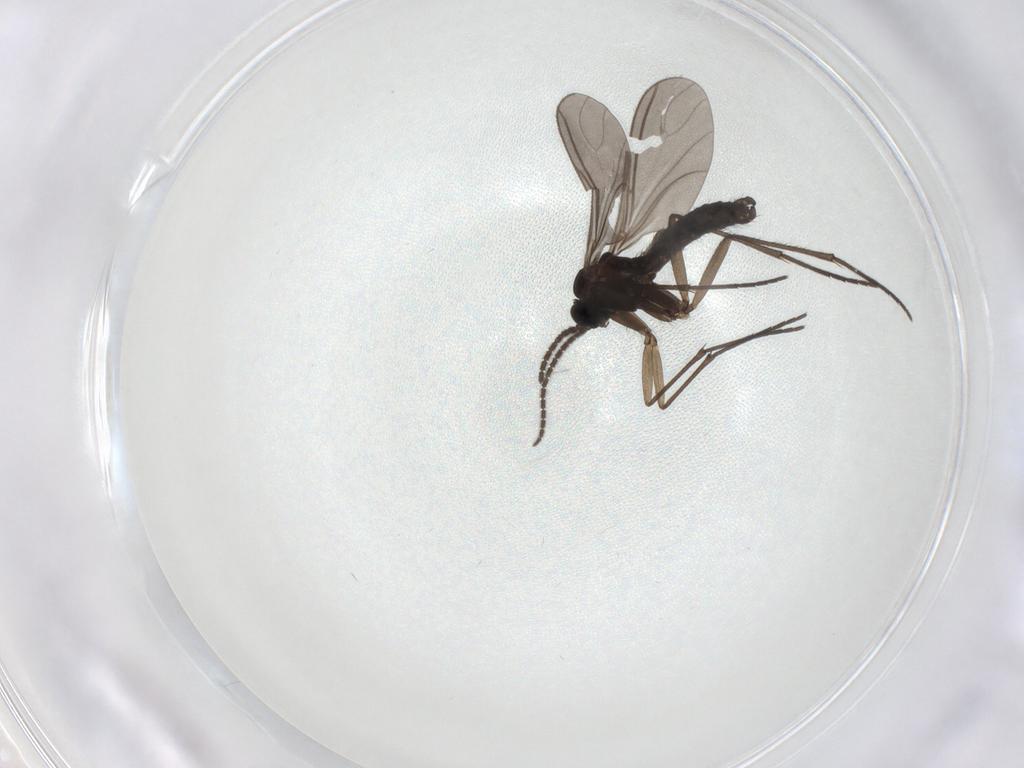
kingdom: Animalia
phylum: Arthropoda
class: Insecta
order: Diptera
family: Sciaridae
